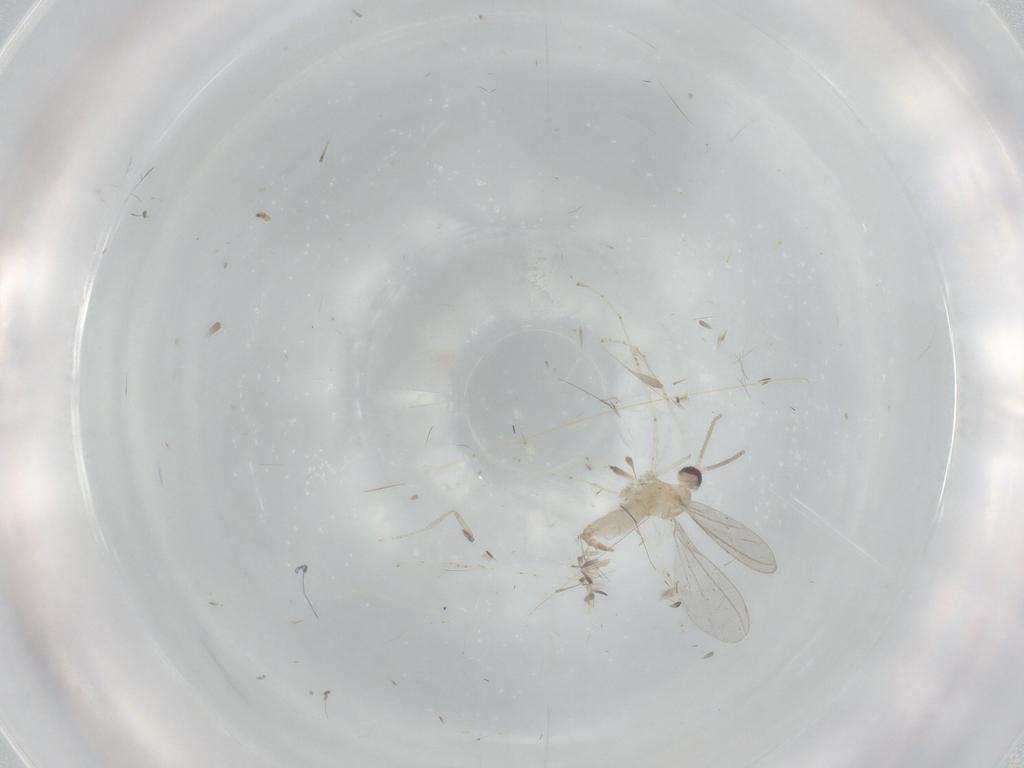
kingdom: Animalia
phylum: Arthropoda
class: Insecta
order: Diptera
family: Cecidomyiidae
